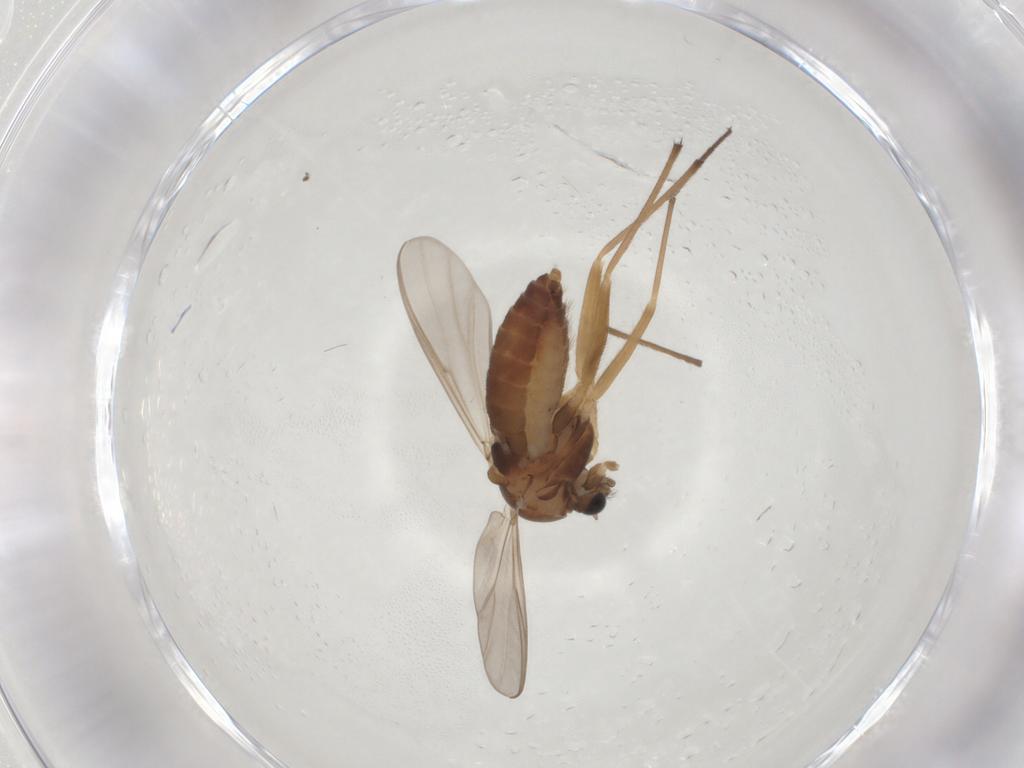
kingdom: Animalia
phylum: Arthropoda
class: Insecta
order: Diptera
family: Chironomidae
